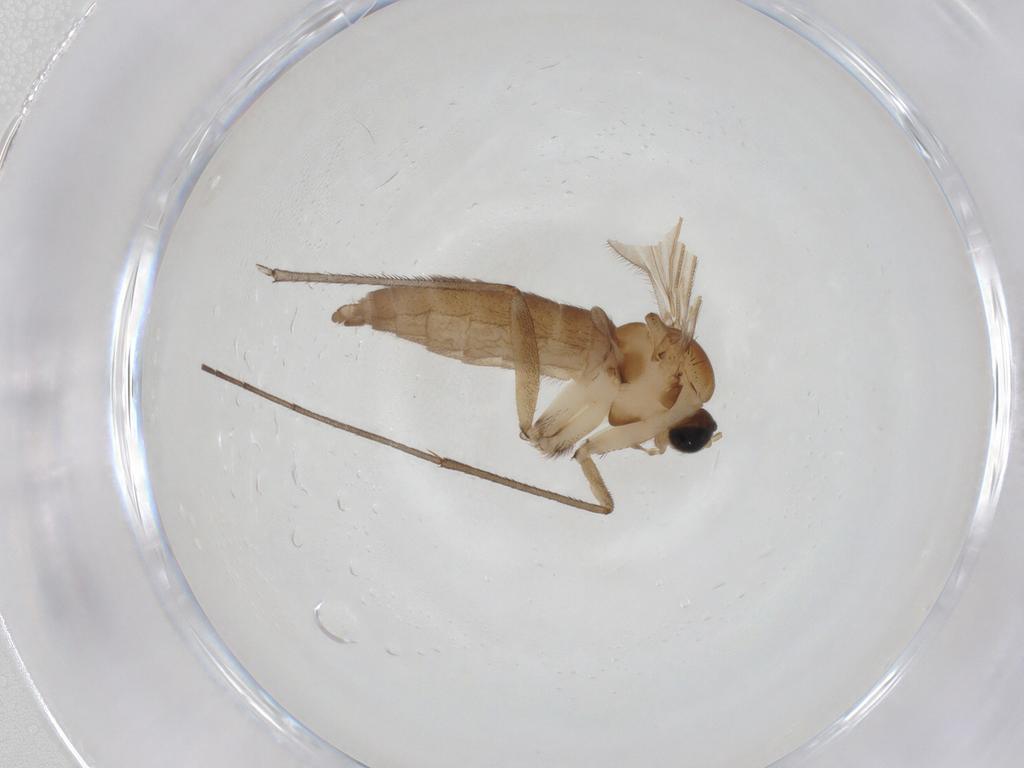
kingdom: Animalia
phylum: Arthropoda
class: Insecta
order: Diptera
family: Sciaridae
